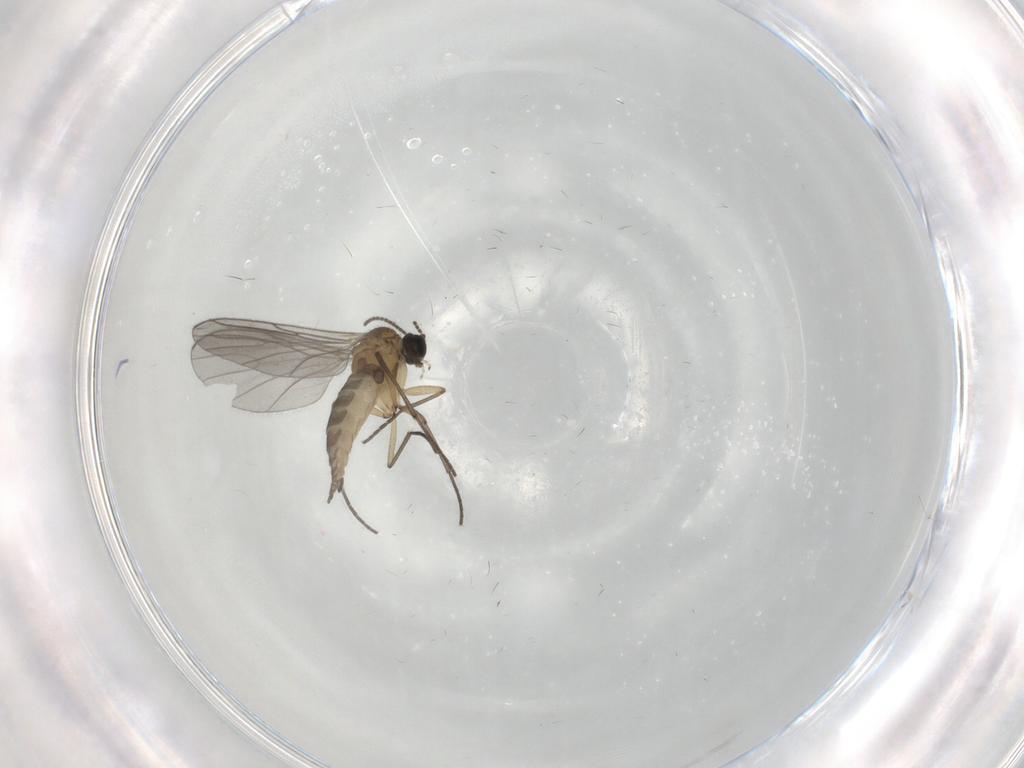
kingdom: Animalia
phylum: Arthropoda
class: Insecta
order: Diptera
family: Sciaridae
